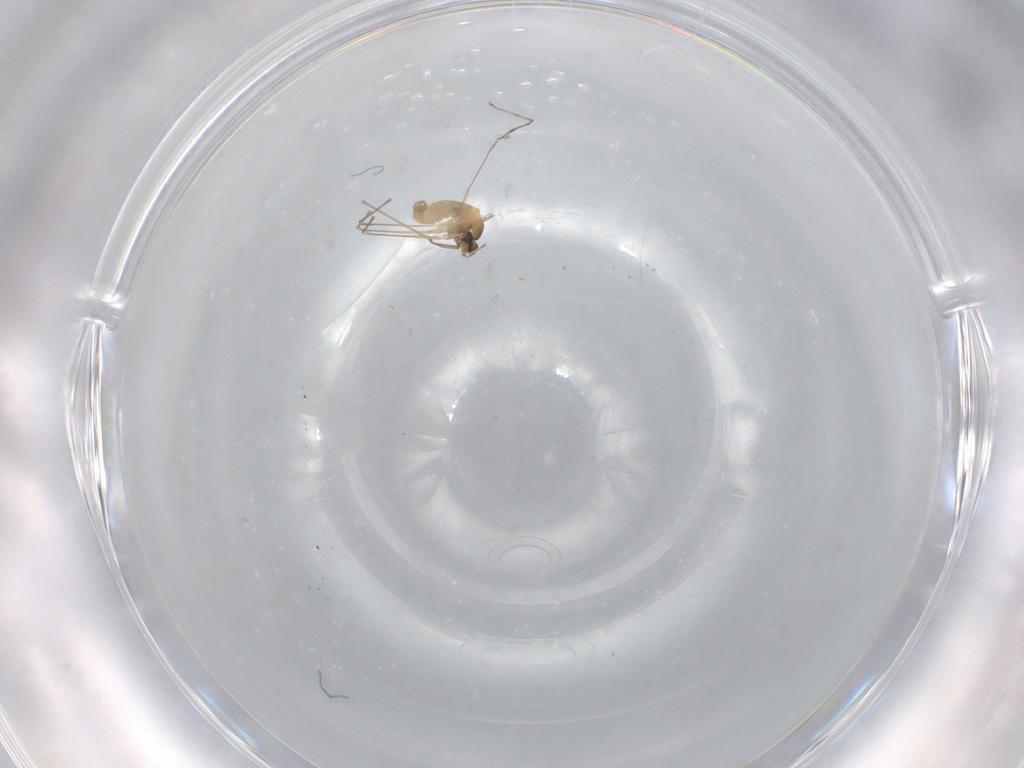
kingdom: Animalia
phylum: Arthropoda
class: Insecta
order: Diptera
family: Cecidomyiidae
